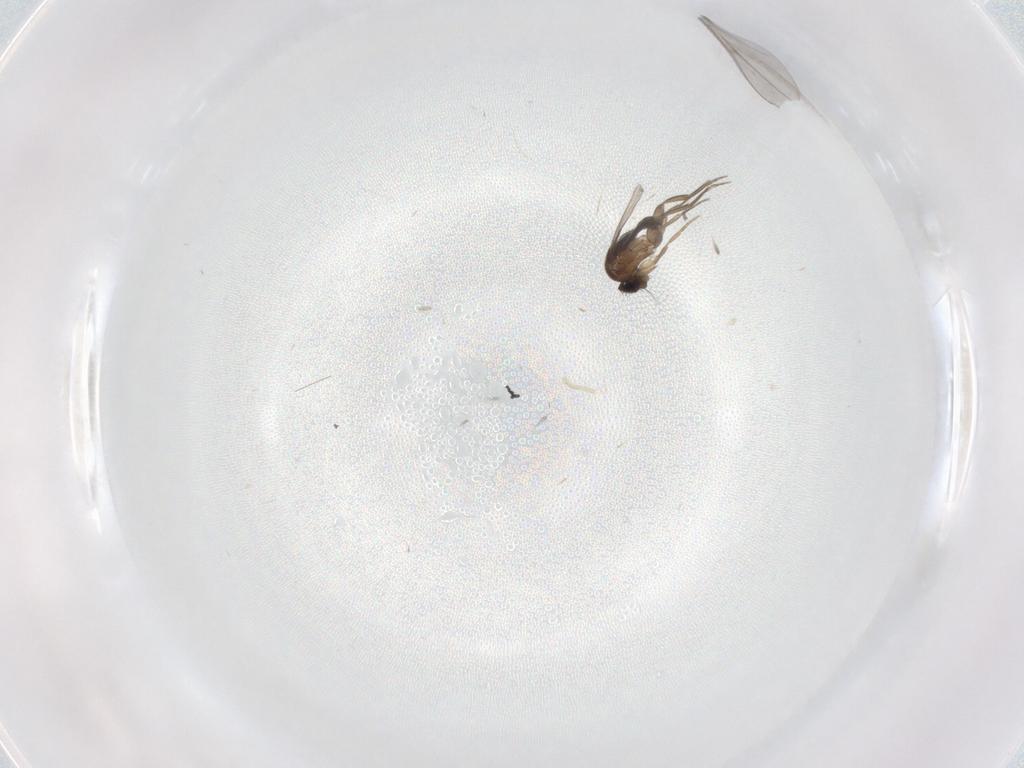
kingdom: Animalia
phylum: Arthropoda
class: Insecta
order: Diptera
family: Phoridae
